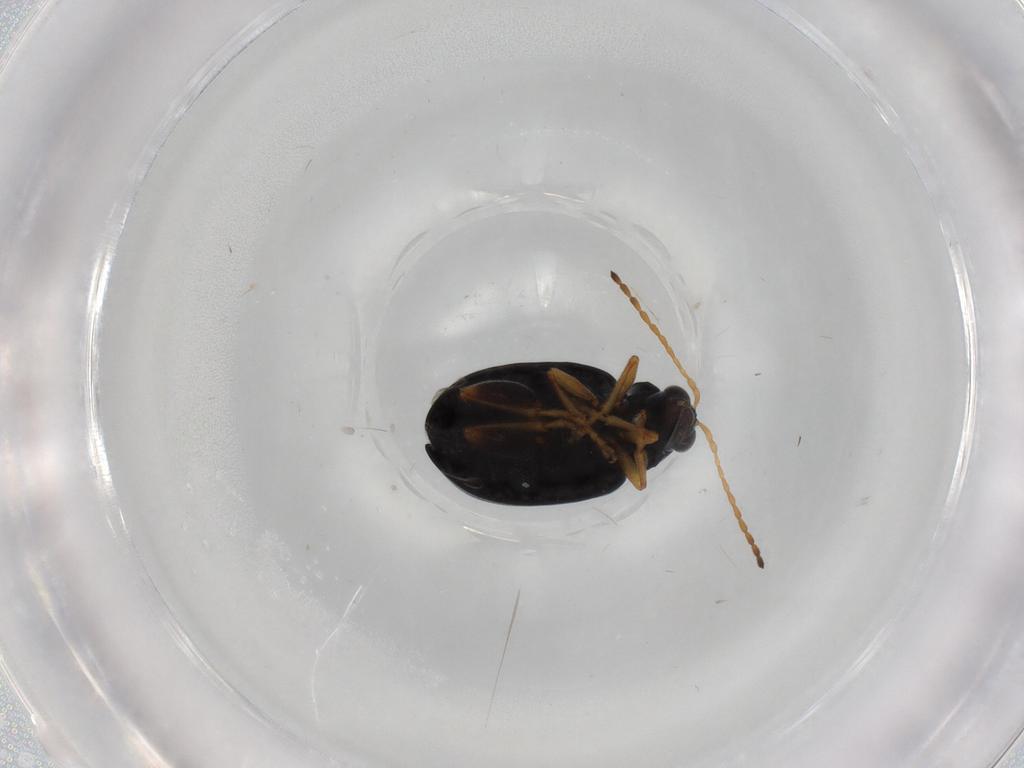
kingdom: Animalia
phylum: Arthropoda
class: Insecta
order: Coleoptera
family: Chrysomelidae
